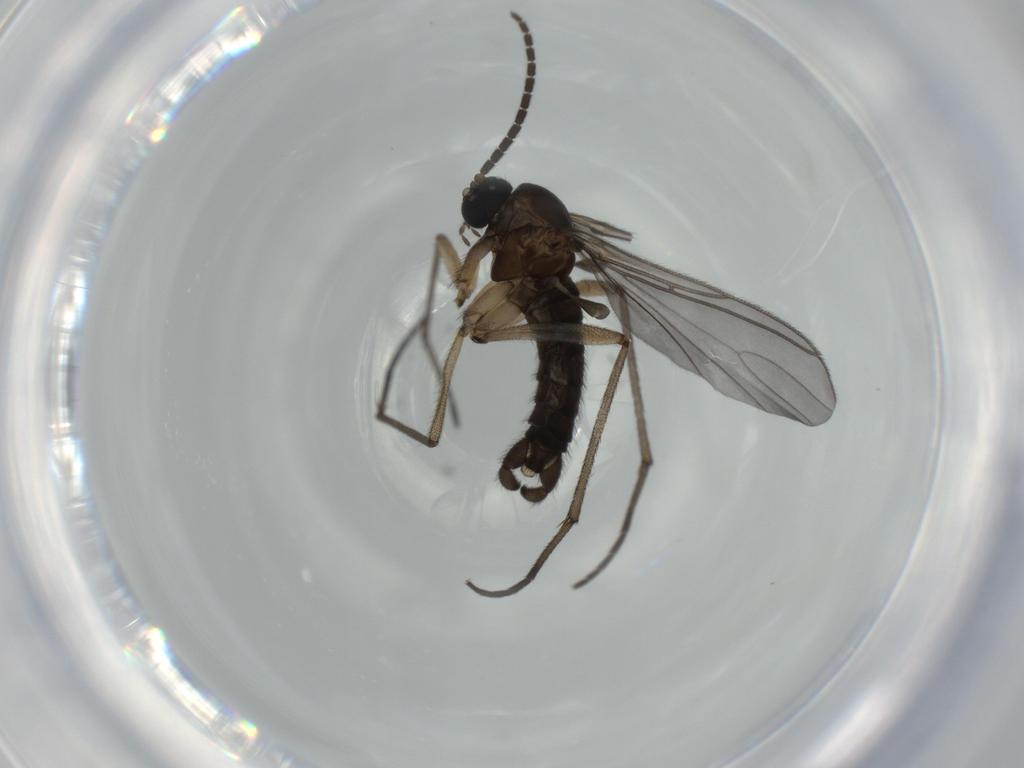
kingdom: Animalia
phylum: Arthropoda
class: Insecta
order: Diptera
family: Sciaridae
